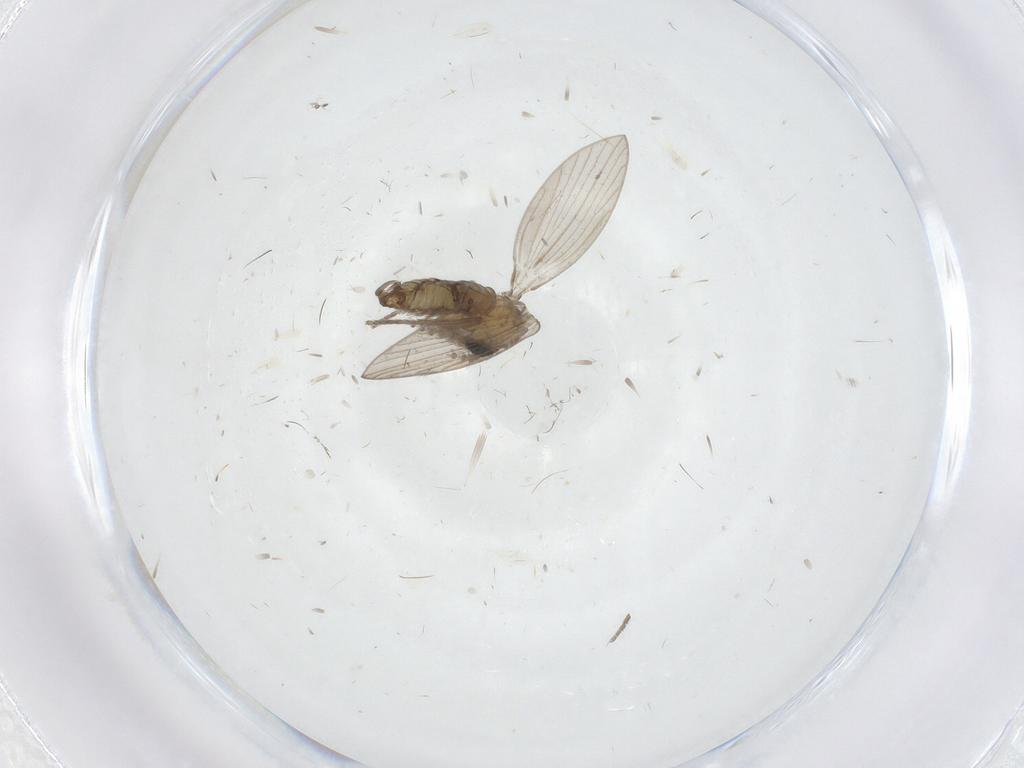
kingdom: Animalia
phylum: Arthropoda
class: Insecta
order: Diptera
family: Psychodidae
